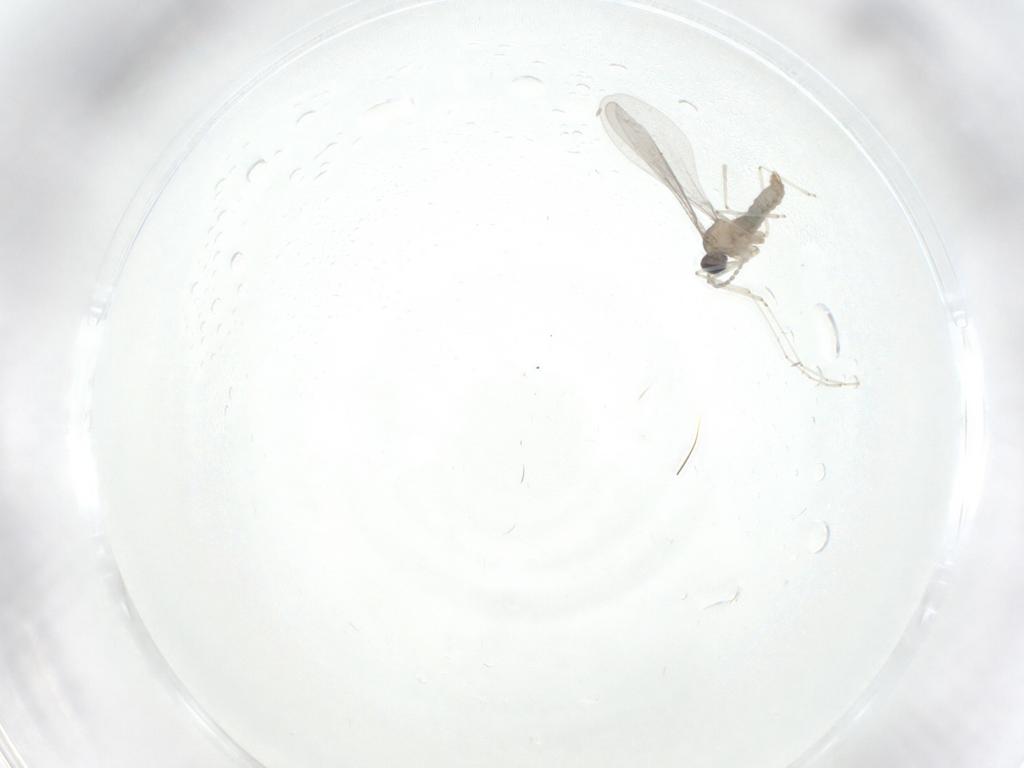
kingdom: Animalia
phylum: Arthropoda
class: Insecta
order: Diptera
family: Cecidomyiidae
